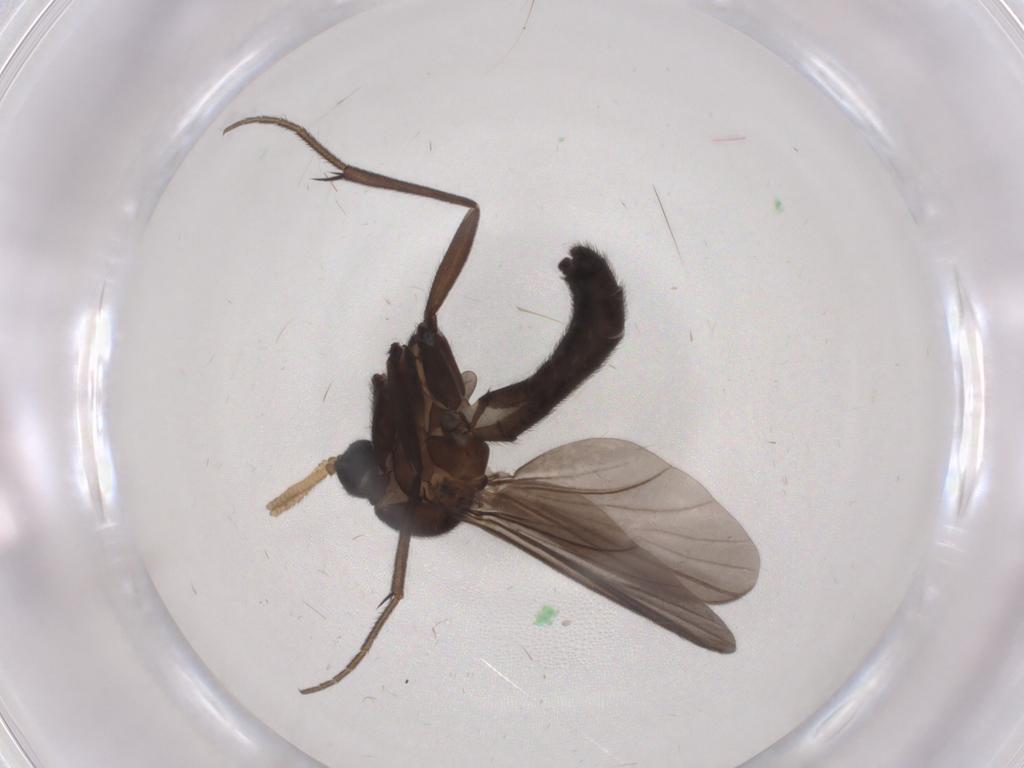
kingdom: Animalia
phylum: Arthropoda
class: Insecta
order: Diptera
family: Mycetophilidae
